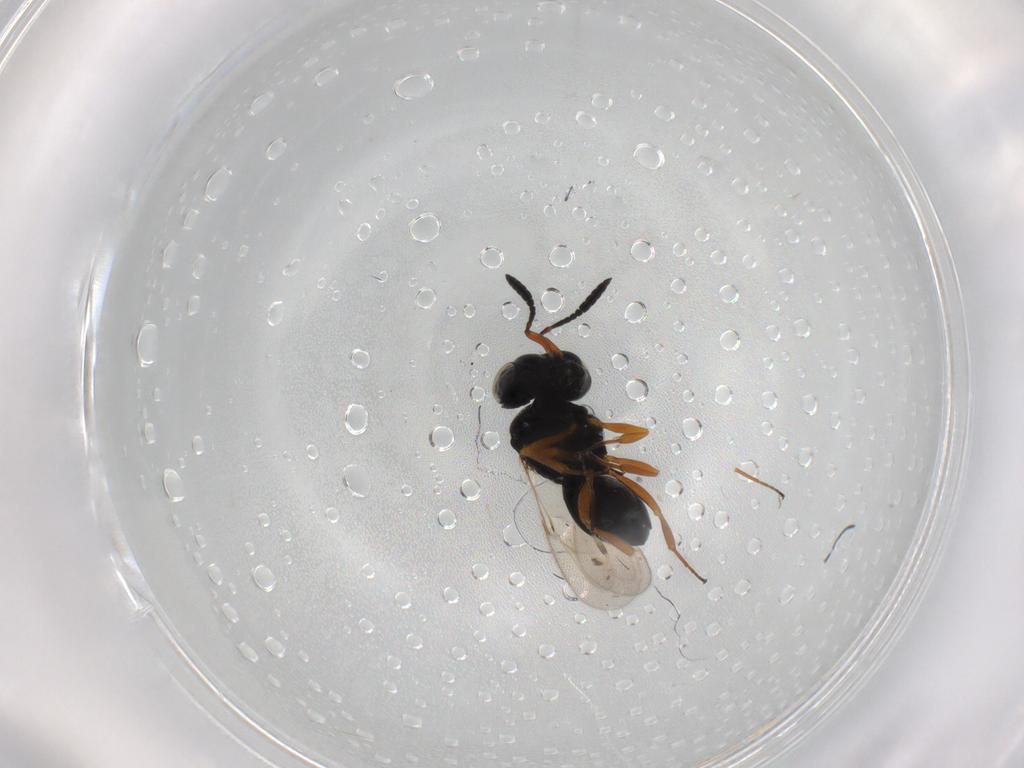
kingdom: Animalia
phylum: Arthropoda
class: Insecta
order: Hymenoptera
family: Scelionidae
